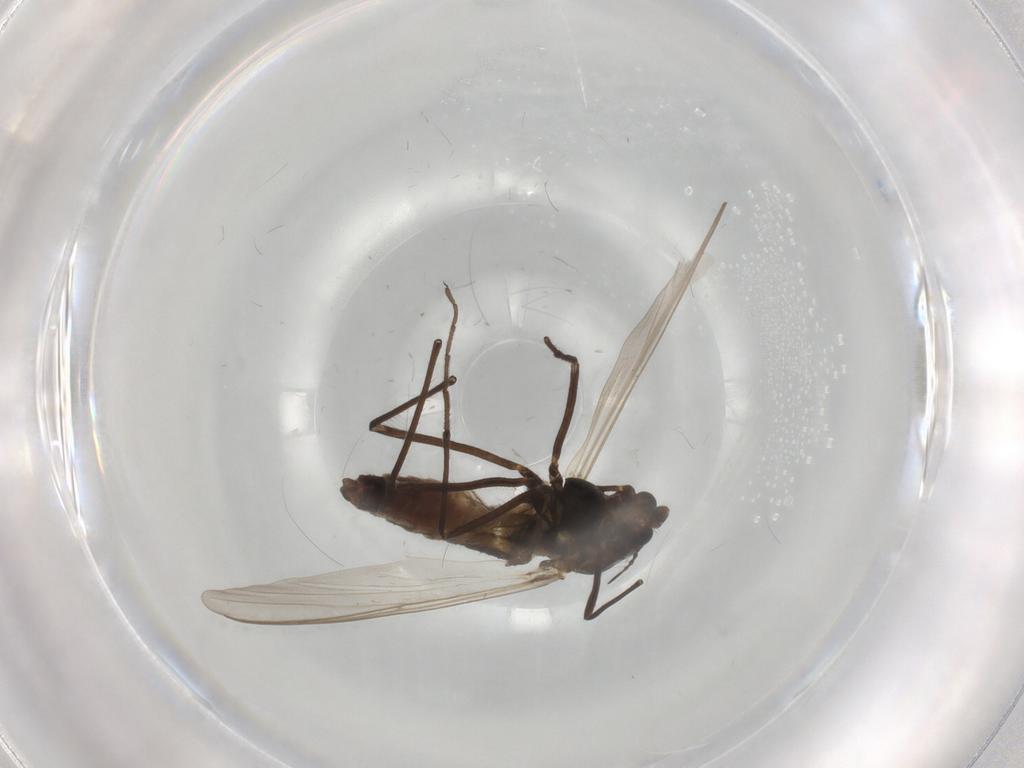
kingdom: Animalia
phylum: Arthropoda
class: Insecta
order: Diptera
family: Chironomidae
